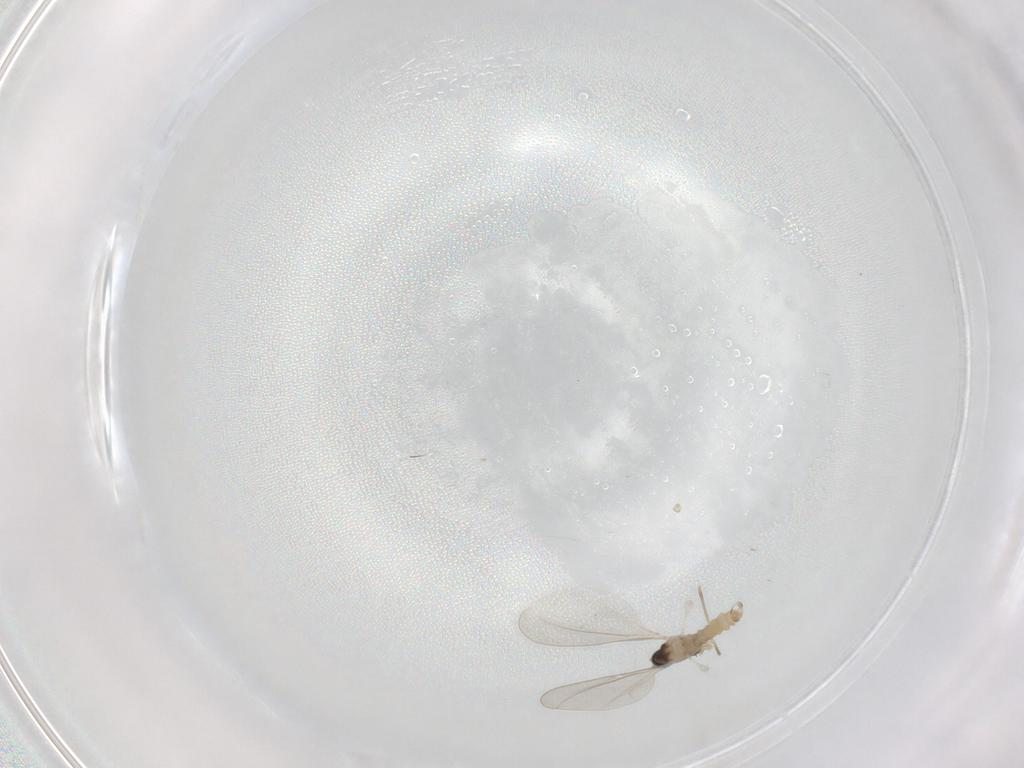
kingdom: Animalia
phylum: Arthropoda
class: Insecta
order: Diptera
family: Cecidomyiidae
